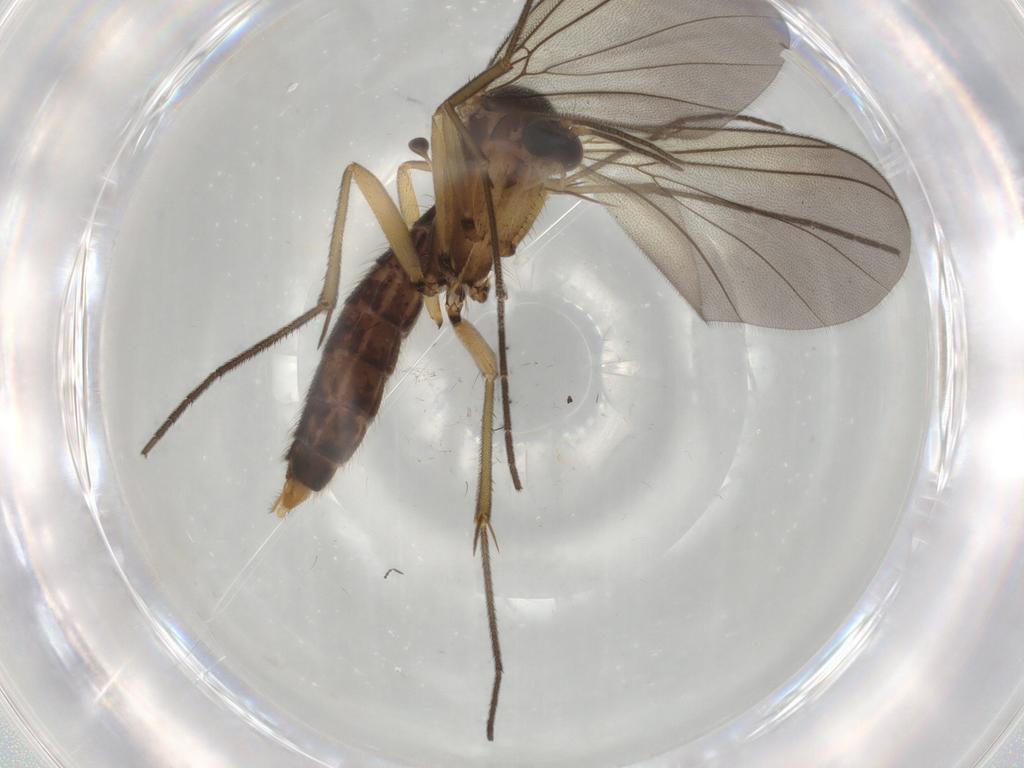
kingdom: Animalia
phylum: Arthropoda
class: Insecta
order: Diptera
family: Mycetophilidae
